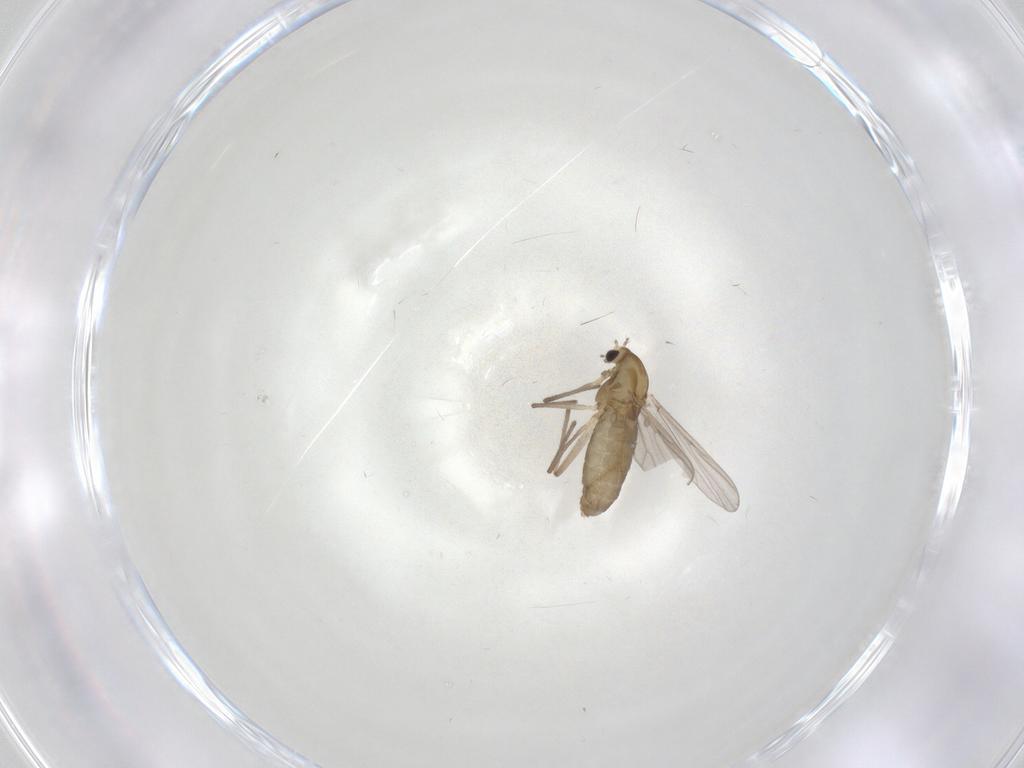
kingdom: Animalia
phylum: Arthropoda
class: Insecta
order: Diptera
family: Chironomidae
